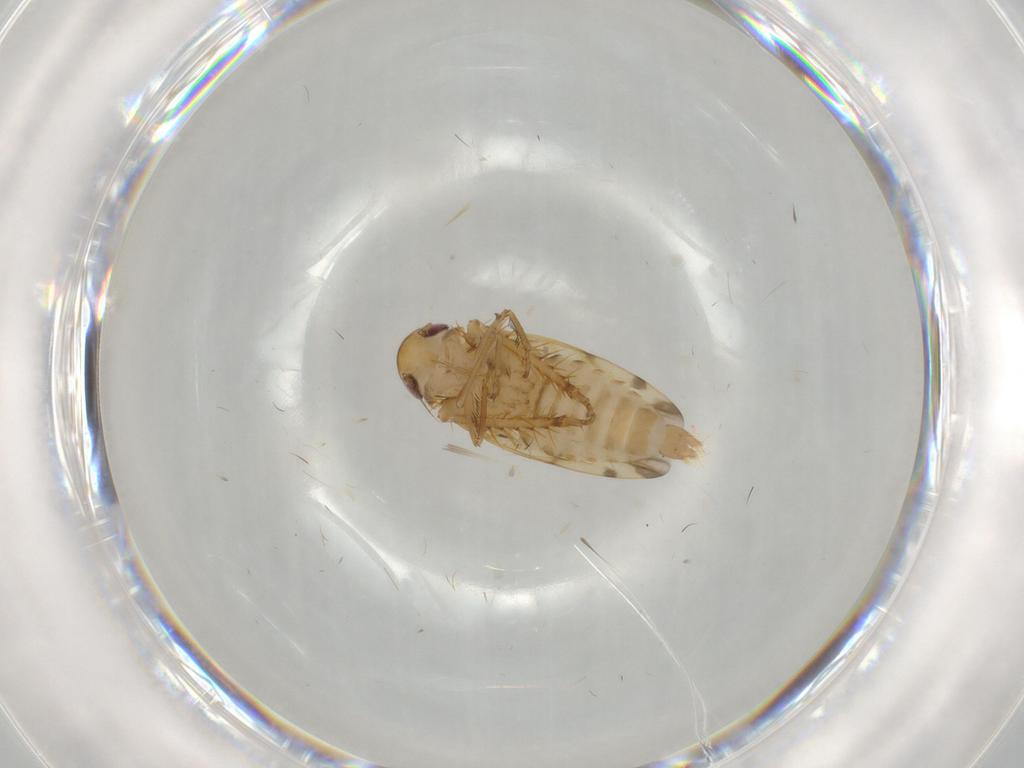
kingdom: Animalia
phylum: Arthropoda
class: Insecta
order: Hemiptera
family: Cicadellidae
